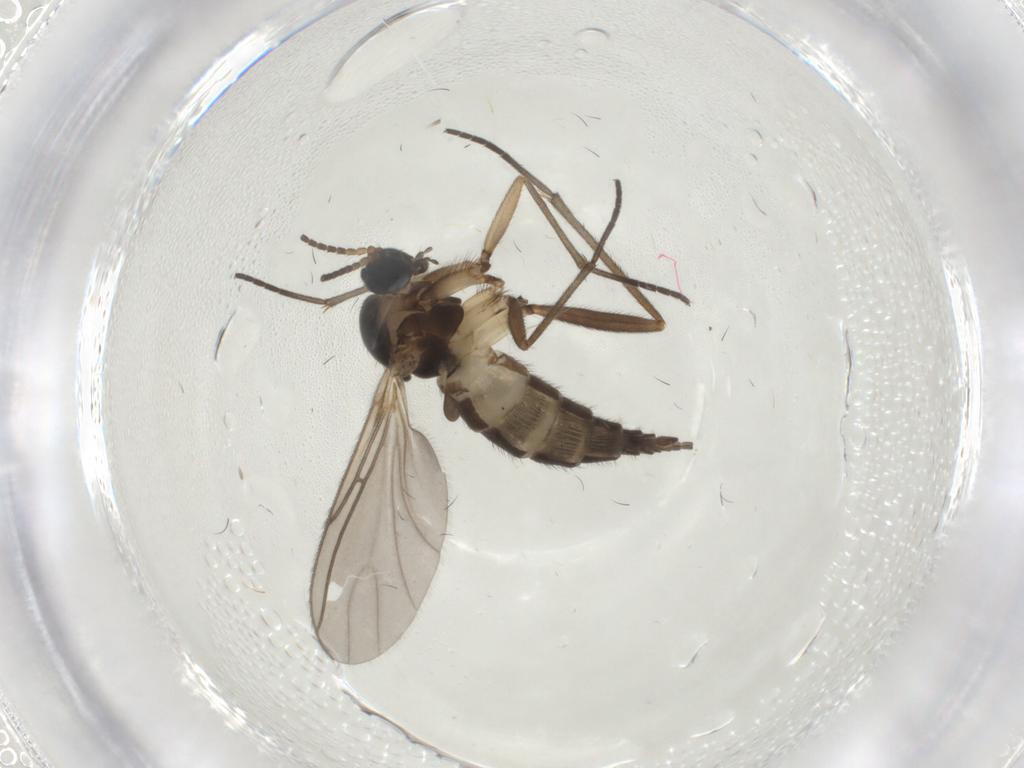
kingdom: Animalia
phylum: Arthropoda
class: Insecta
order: Diptera
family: Sciaridae
